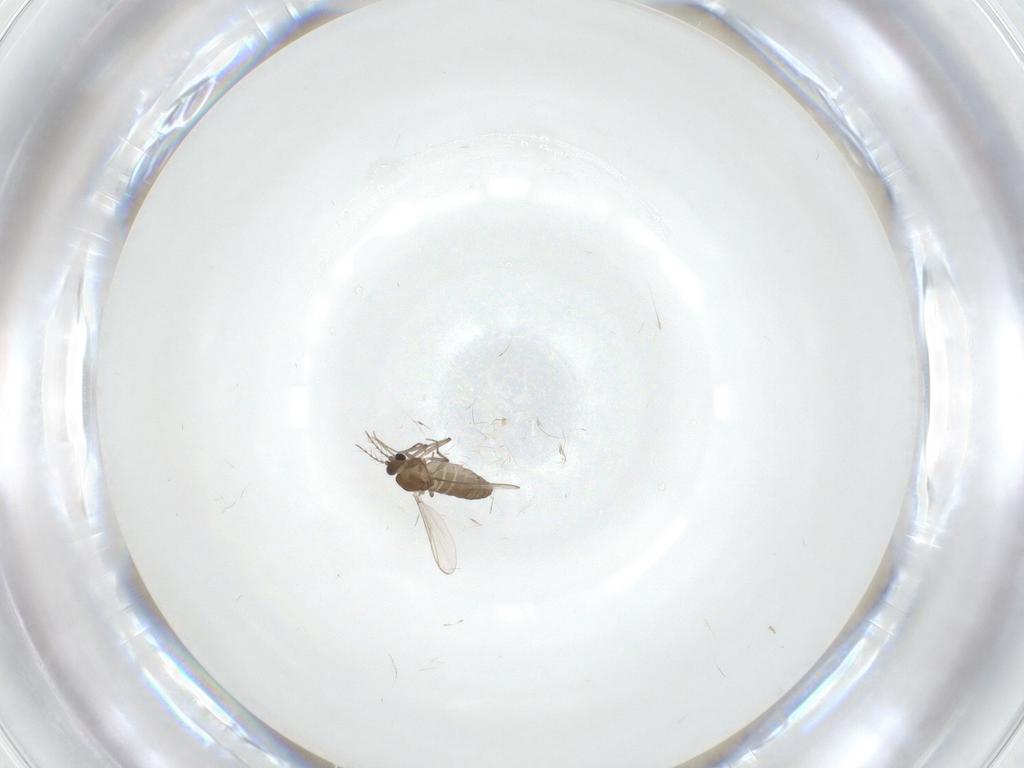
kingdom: Animalia
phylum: Arthropoda
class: Insecta
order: Diptera
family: Chironomidae
